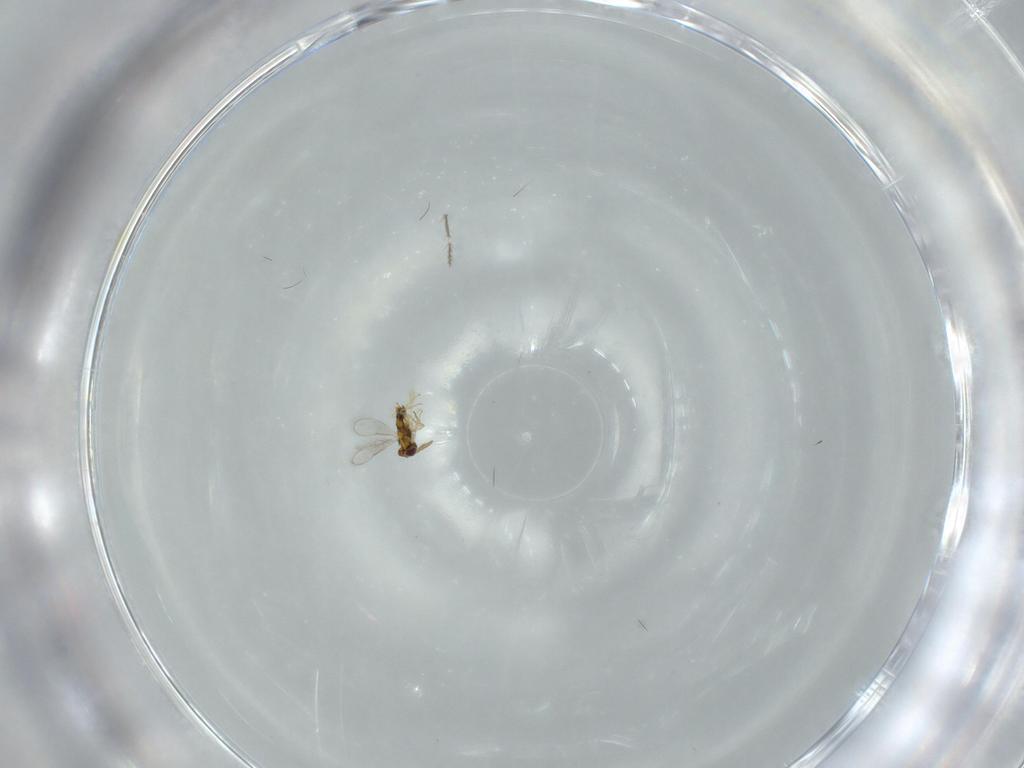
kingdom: Animalia
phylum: Arthropoda
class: Insecta
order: Hymenoptera
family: Aphelinidae
